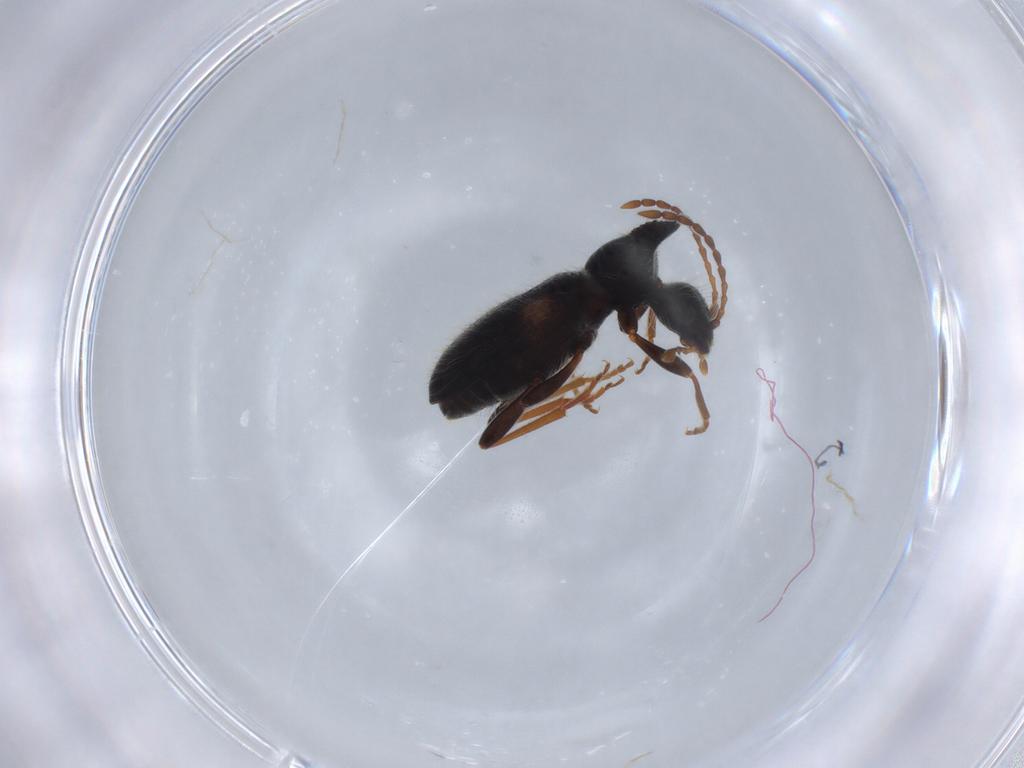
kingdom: Animalia
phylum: Arthropoda
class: Insecta
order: Coleoptera
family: Anthicidae
